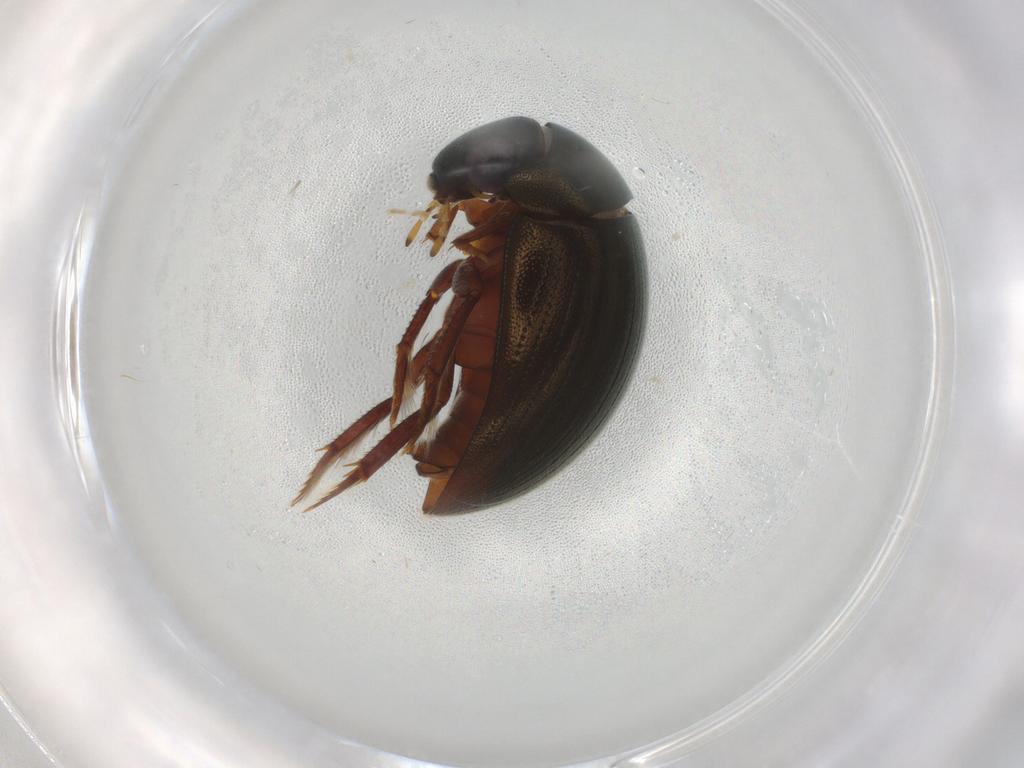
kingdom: Animalia
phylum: Arthropoda
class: Insecta
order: Coleoptera
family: Hydrophilidae
